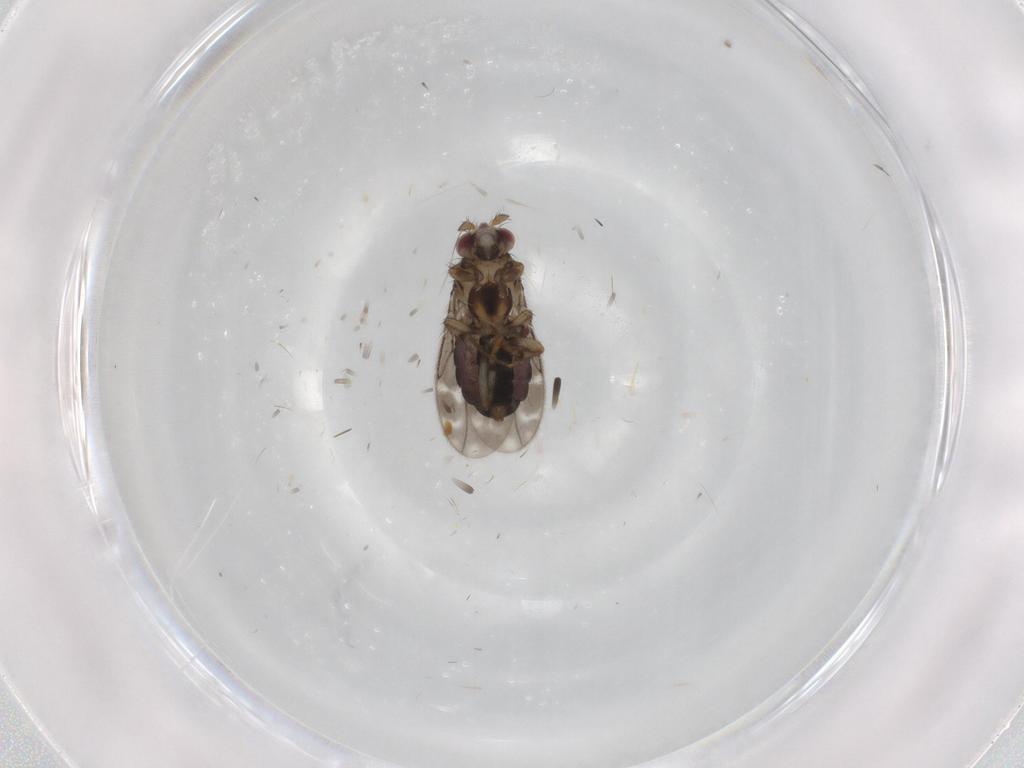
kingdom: Animalia
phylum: Arthropoda
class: Insecta
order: Diptera
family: Sphaeroceridae
